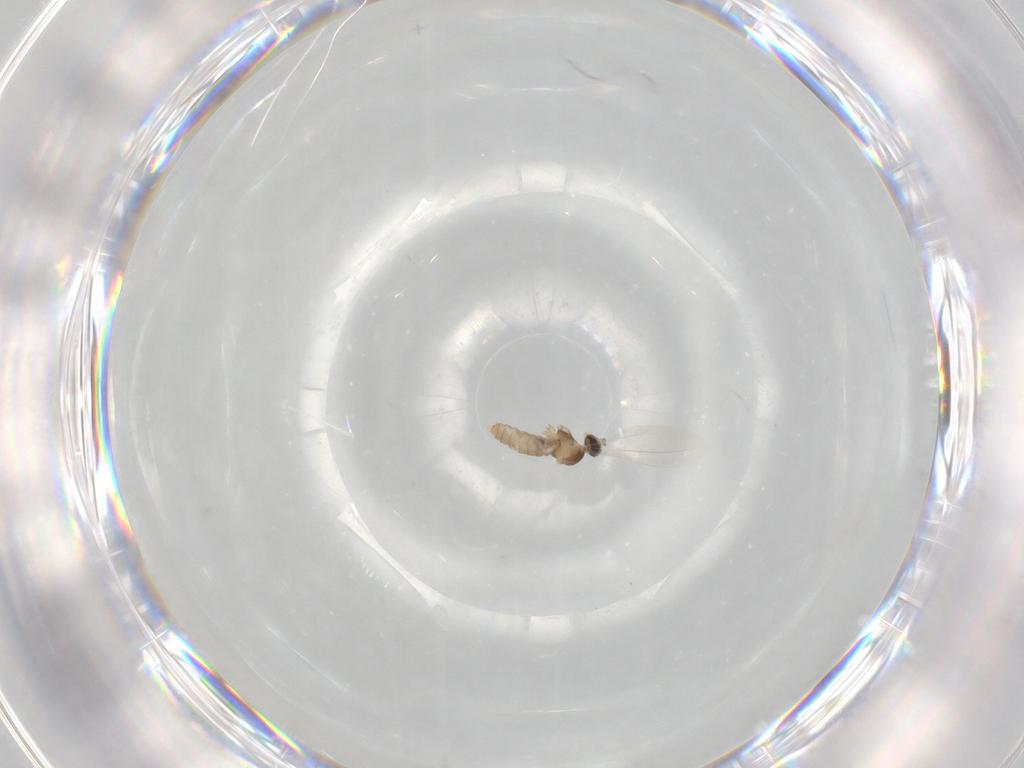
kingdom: Animalia
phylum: Arthropoda
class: Insecta
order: Diptera
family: Cecidomyiidae
